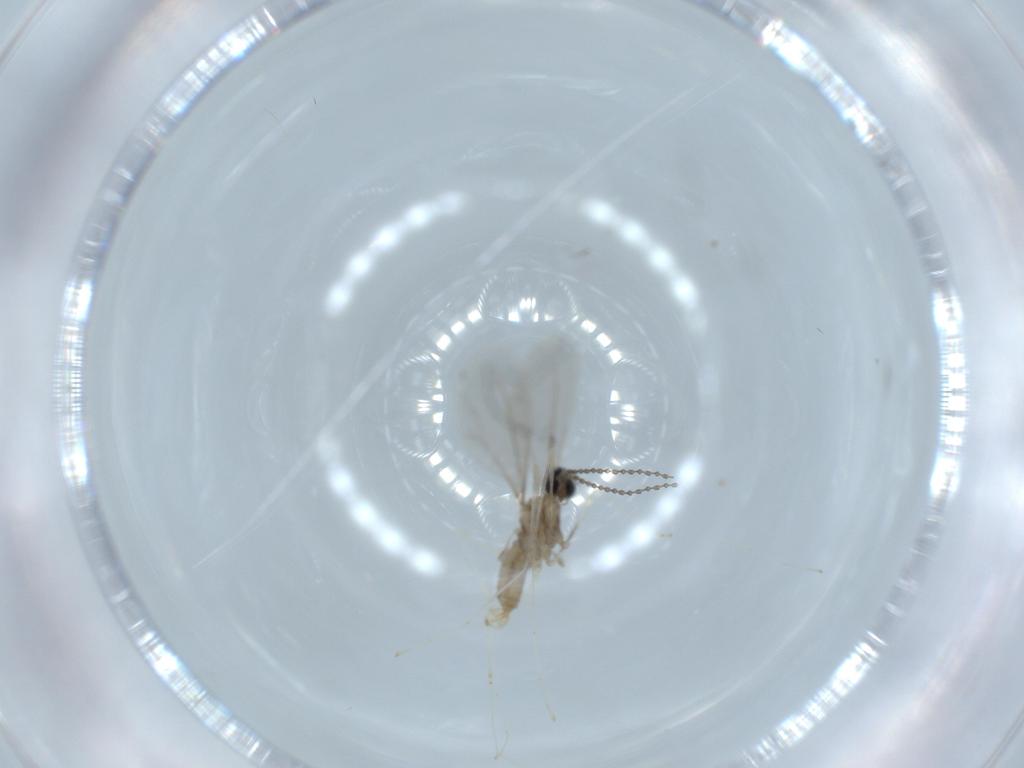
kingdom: Animalia
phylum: Arthropoda
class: Insecta
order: Diptera
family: Cecidomyiidae
